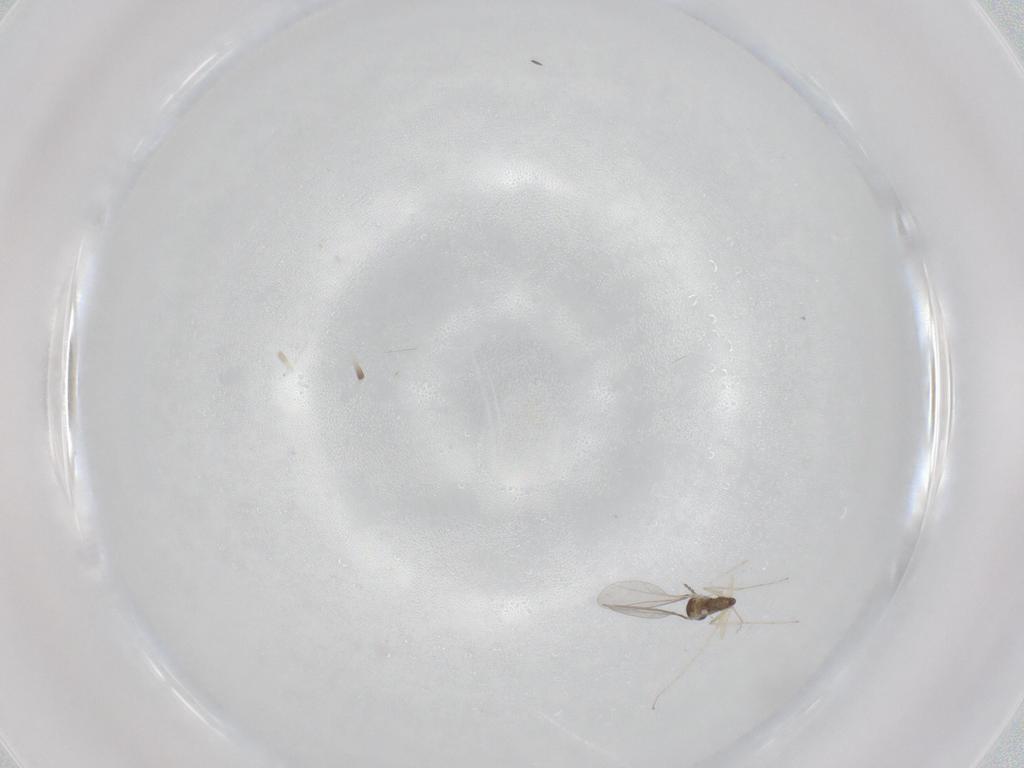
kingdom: Animalia
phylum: Arthropoda
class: Insecta
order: Diptera
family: Cecidomyiidae
